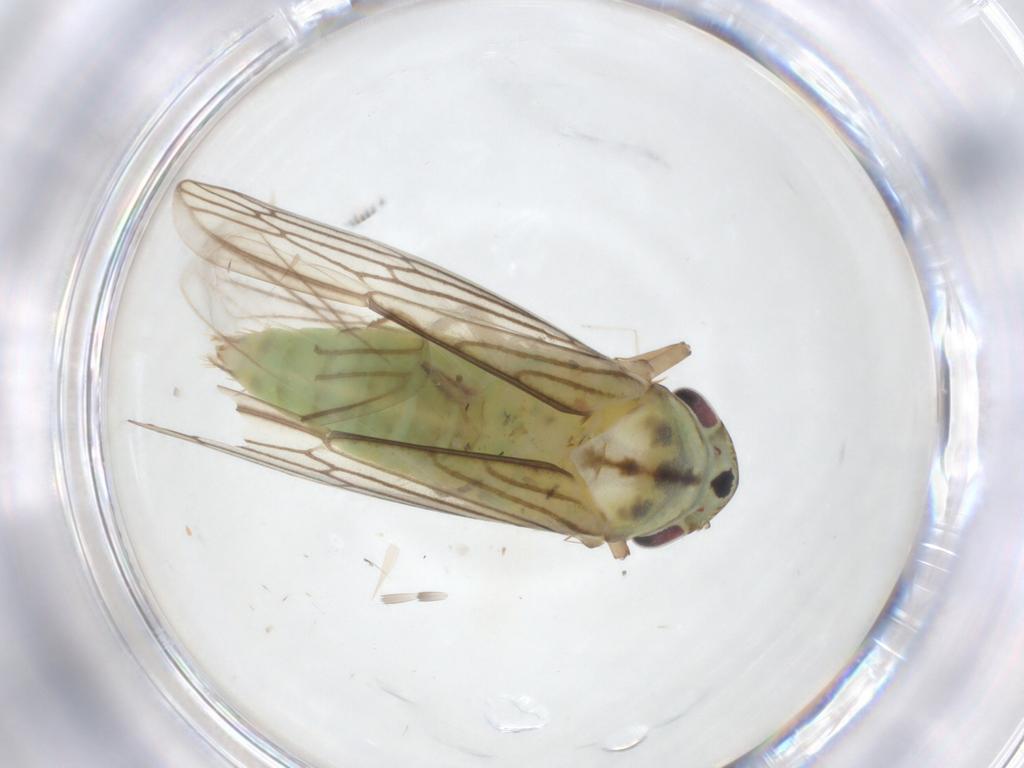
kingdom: Animalia
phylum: Arthropoda
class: Insecta
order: Hemiptera
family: Cicadellidae
